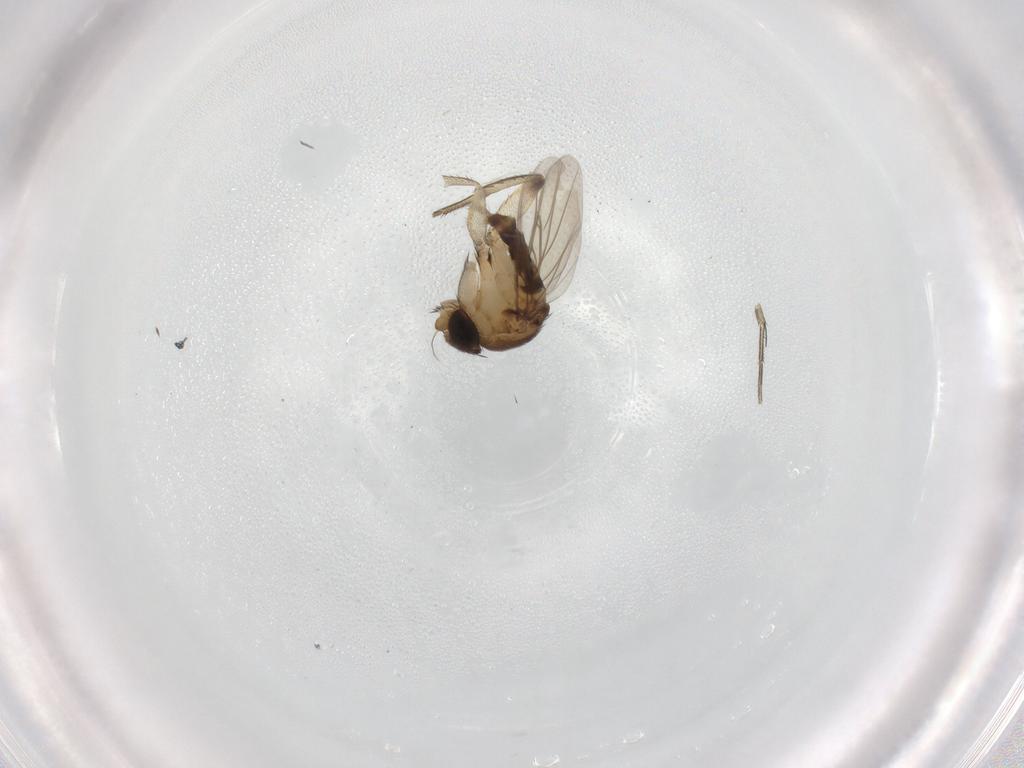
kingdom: Animalia
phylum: Arthropoda
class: Insecta
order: Diptera
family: Cecidomyiidae
